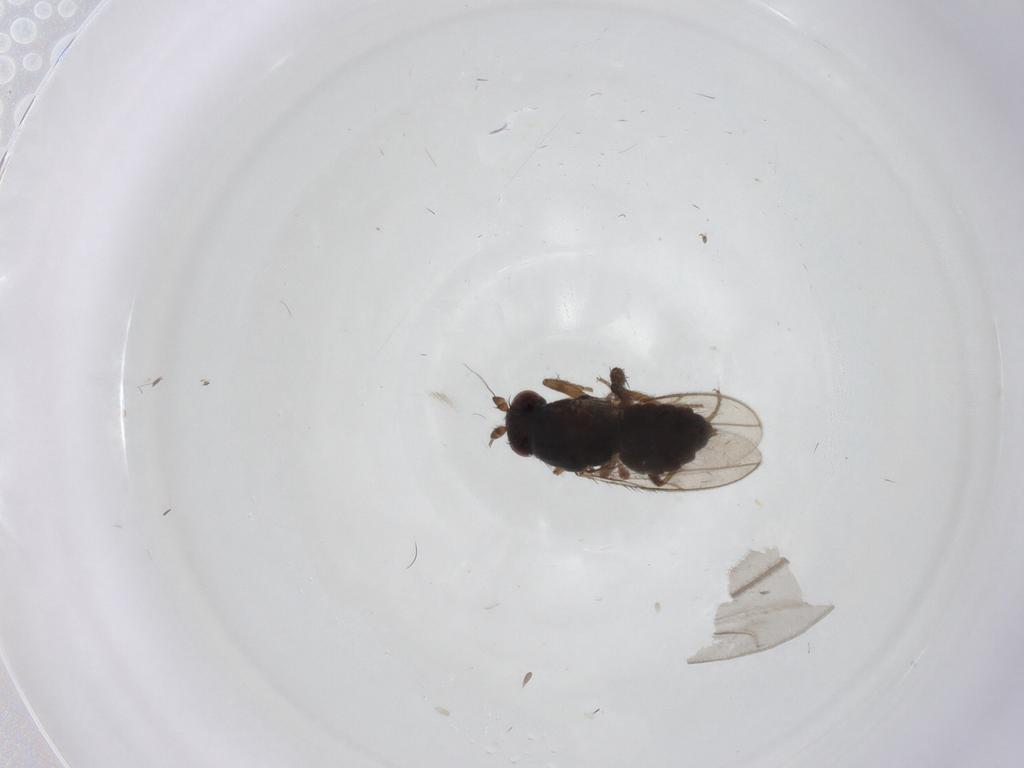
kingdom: Animalia
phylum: Arthropoda
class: Insecta
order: Diptera
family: Sphaeroceridae
